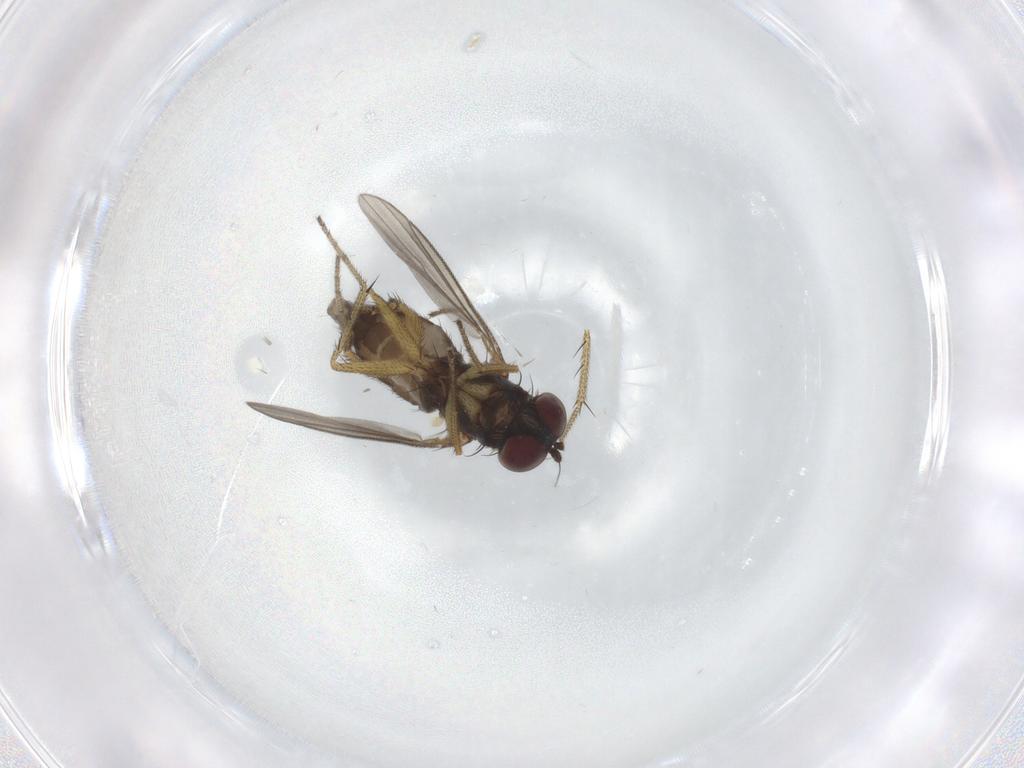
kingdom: Animalia
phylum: Arthropoda
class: Insecta
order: Diptera
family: Dolichopodidae
